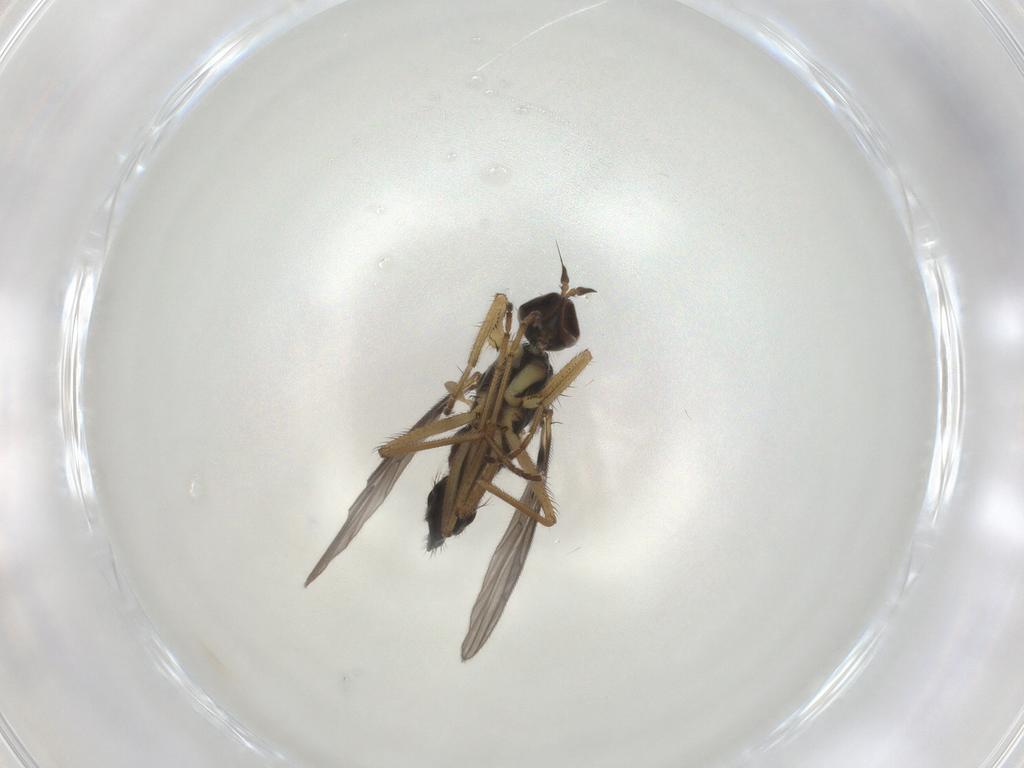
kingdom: Animalia
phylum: Arthropoda
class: Insecta
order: Diptera
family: Empididae
